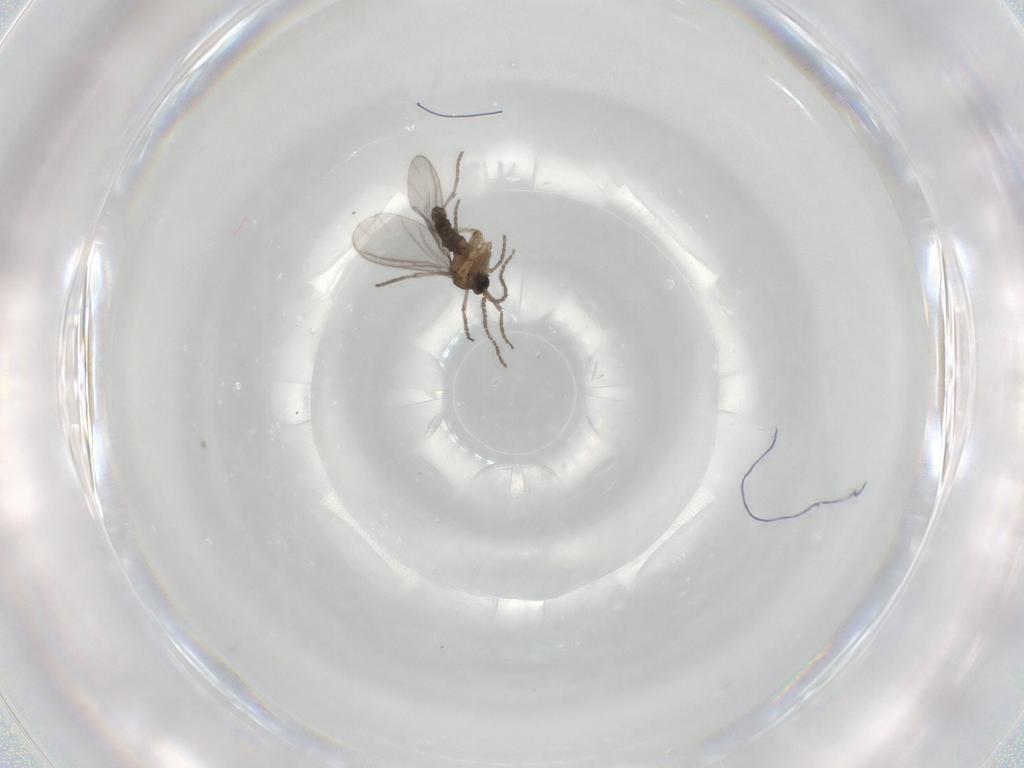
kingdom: Animalia
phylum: Arthropoda
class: Insecta
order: Diptera
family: Sciaridae
